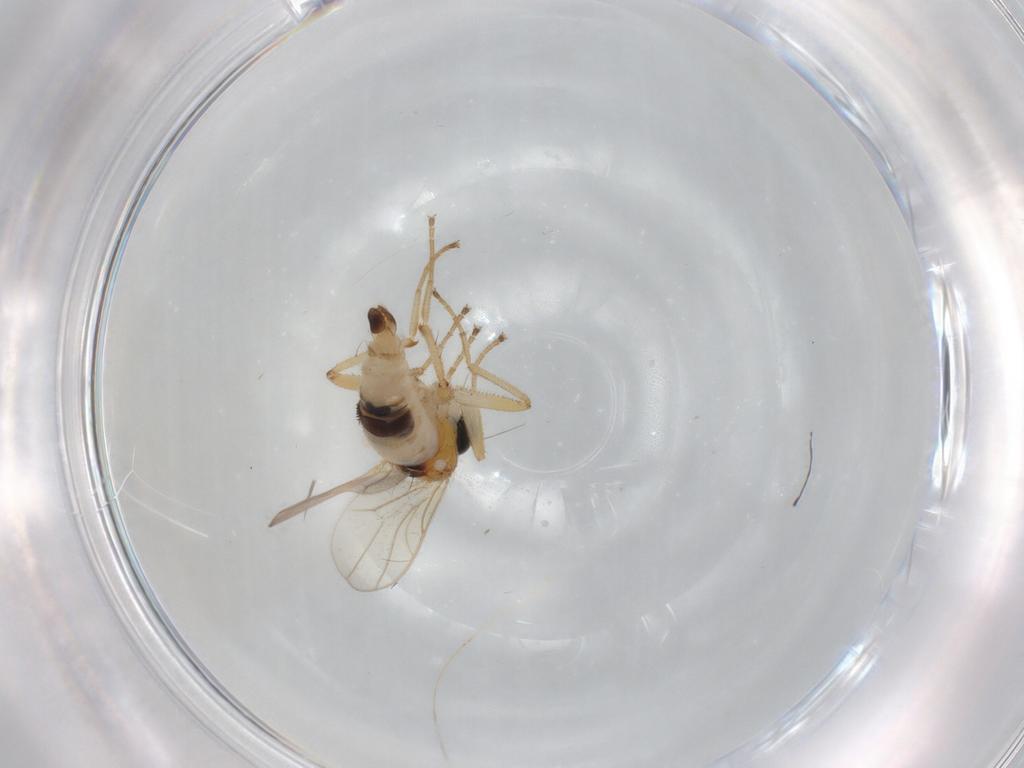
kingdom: Animalia
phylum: Arthropoda
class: Insecta
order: Diptera
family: Hybotidae
